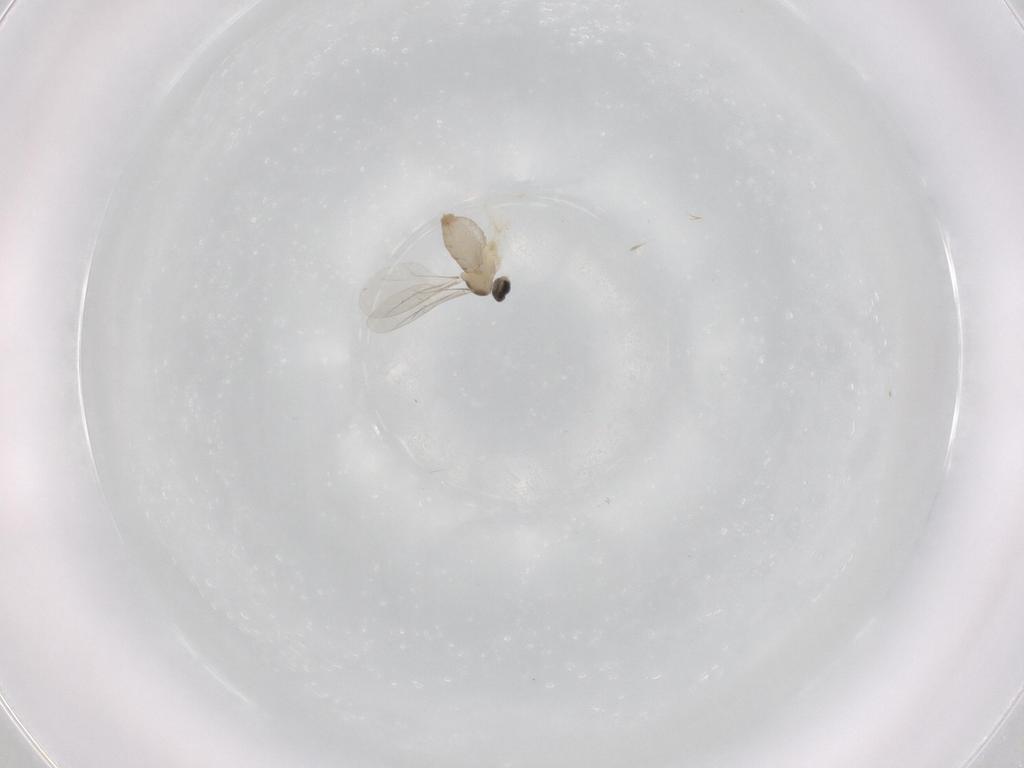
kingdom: Animalia
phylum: Arthropoda
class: Insecta
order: Diptera
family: Cecidomyiidae
